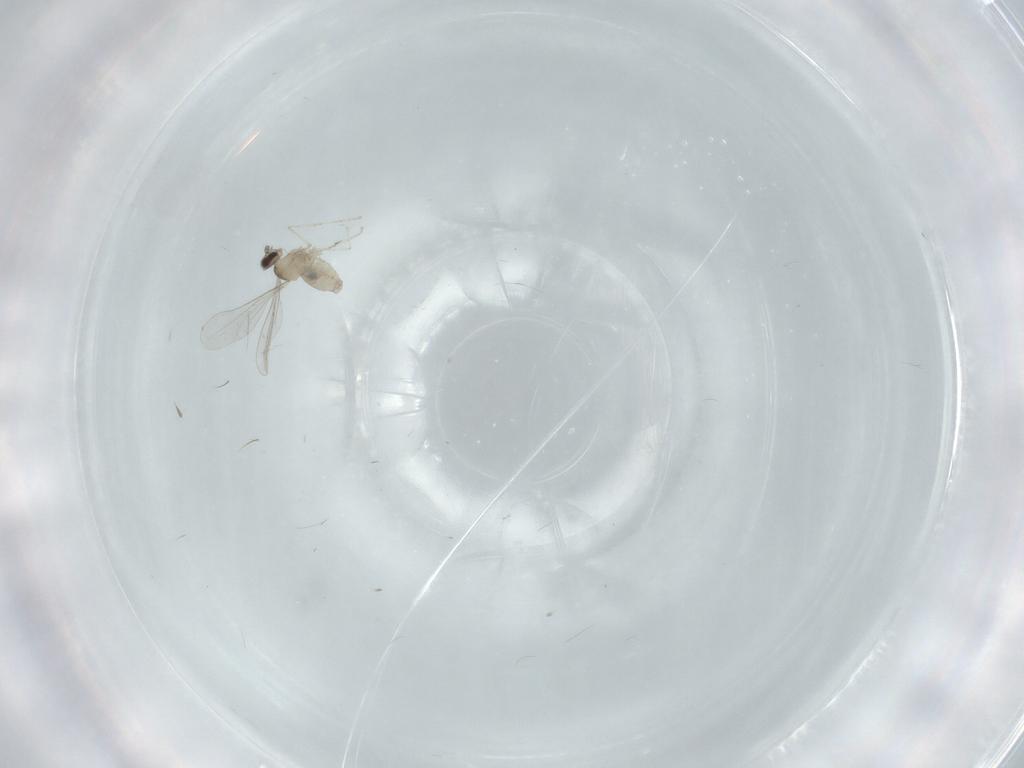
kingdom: Animalia
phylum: Arthropoda
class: Insecta
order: Diptera
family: Cecidomyiidae
